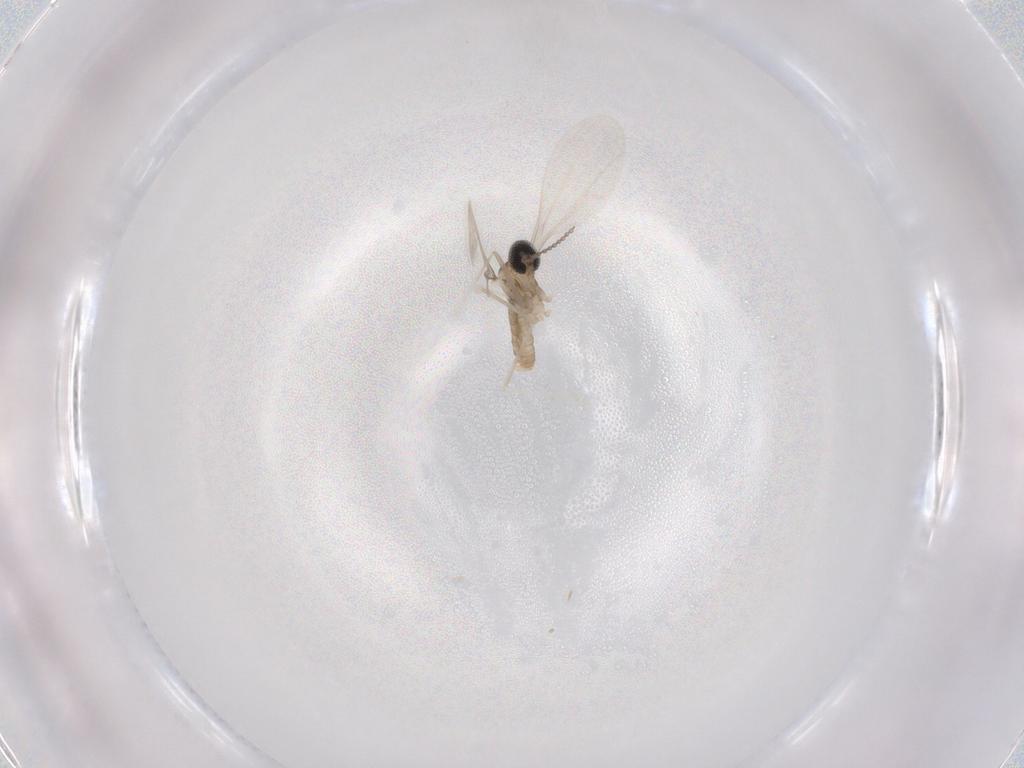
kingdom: Animalia
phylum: Arthropoda
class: Insecta
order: Diptera
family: Cecidomyiidae
